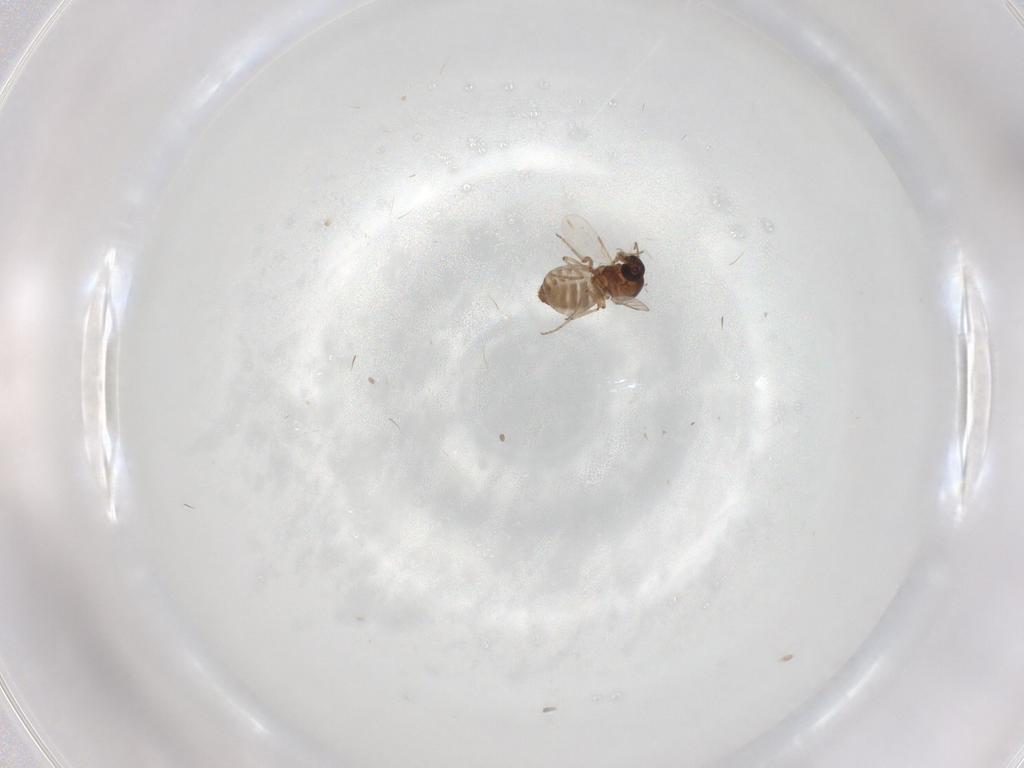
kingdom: Animalia
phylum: Arthropoda
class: Insecta
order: Diptera
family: Ceratopogonidae
